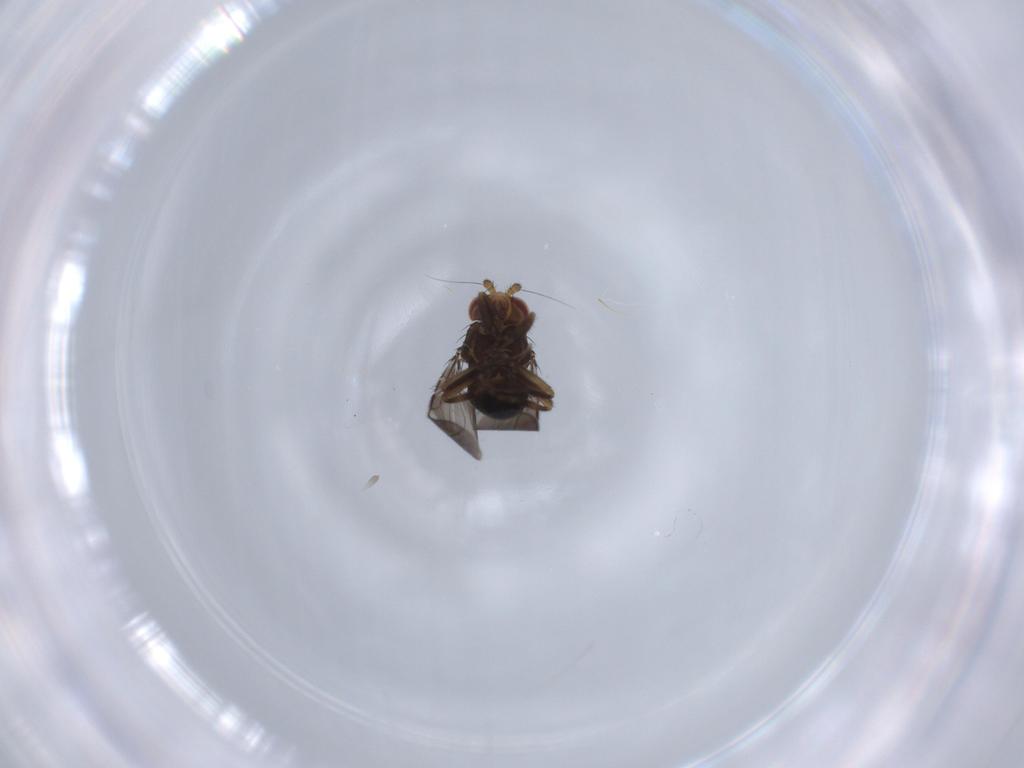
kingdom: Animalia
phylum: Arthropoda
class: Insecta
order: Diptera
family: Sphaeroceridae
